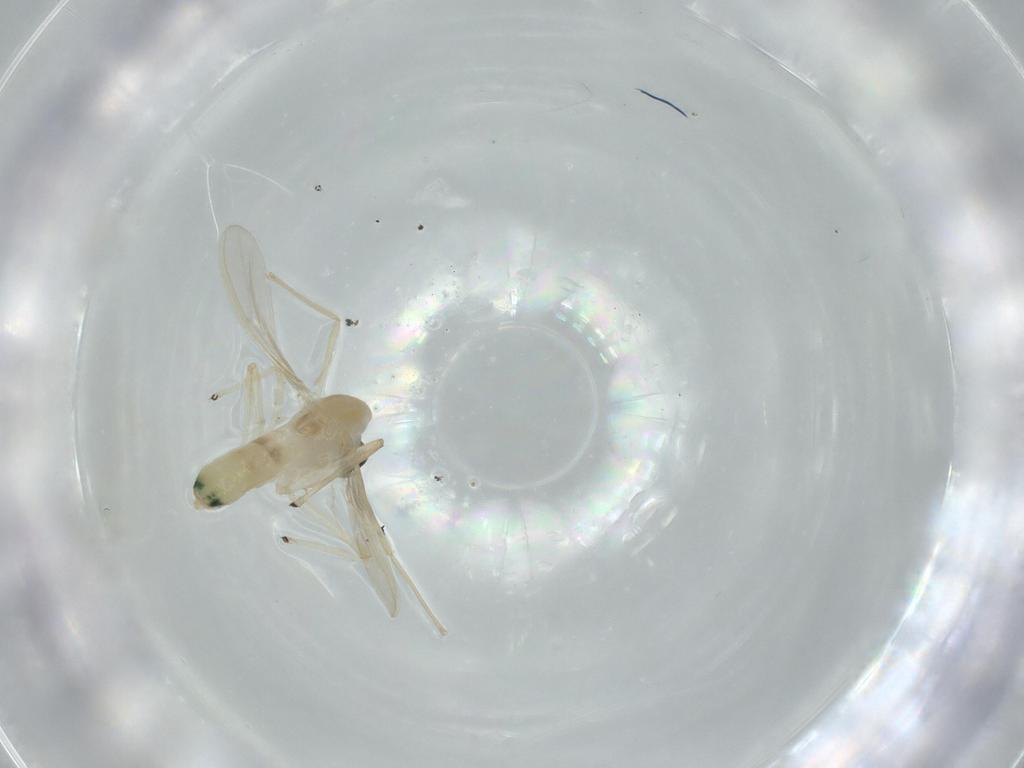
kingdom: Animalia
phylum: Arthropoda
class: Insecta
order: Diptera
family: Chironomidae
